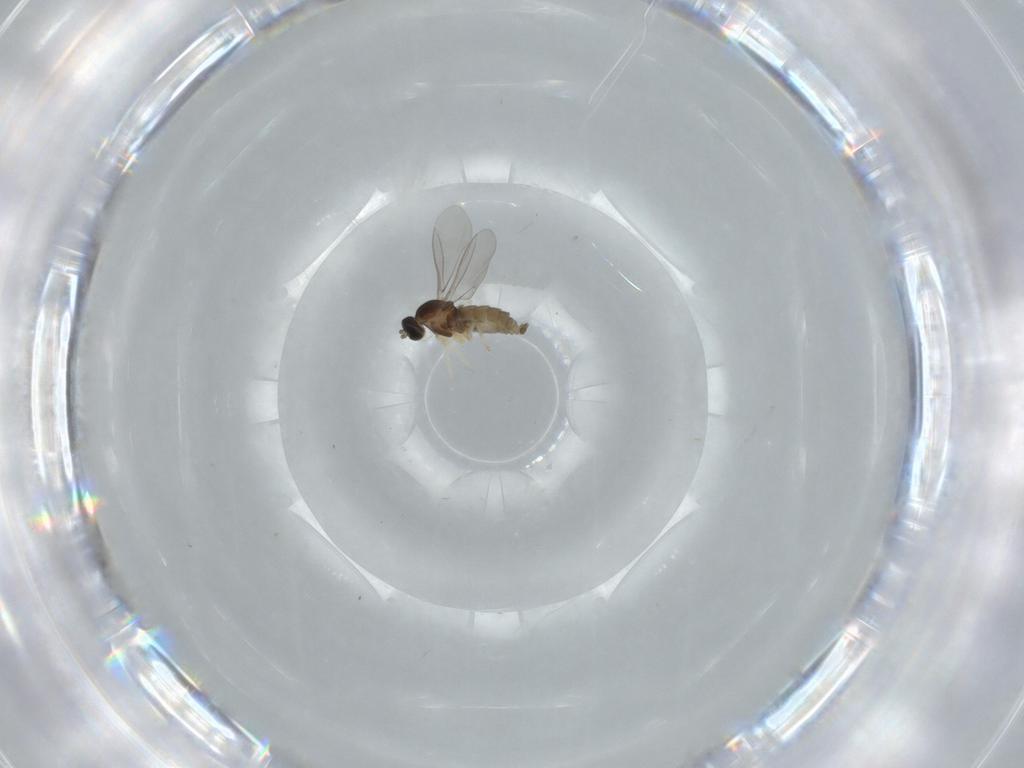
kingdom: Animalia
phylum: Arthropoda
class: Insecta
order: Diptera
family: Cecidomyiidae
